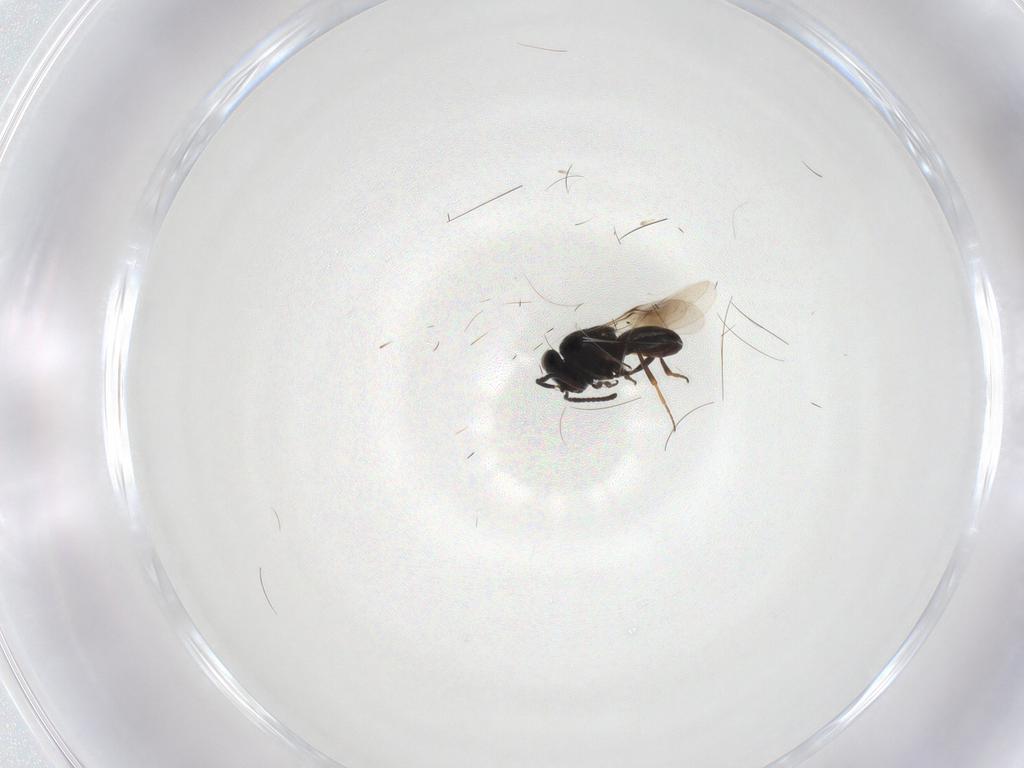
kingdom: Animalia
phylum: Arthropoda
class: Insecta
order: Hymenoptera
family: Scelionidae
